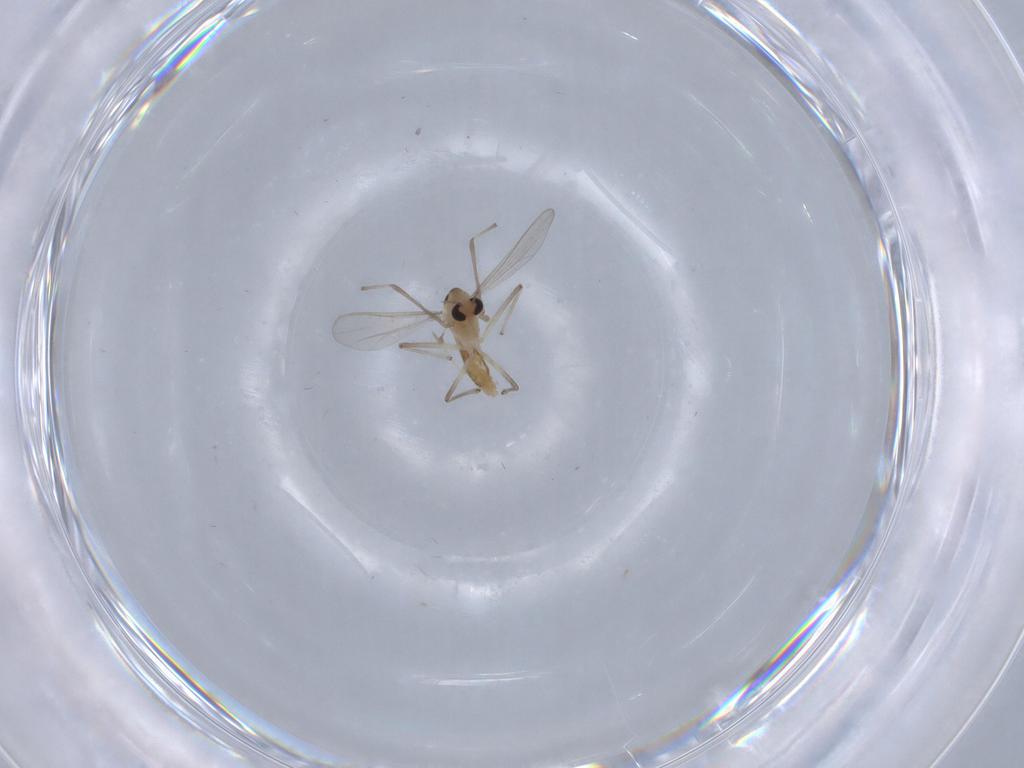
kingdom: Animalia
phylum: Arthropoda
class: Insecta
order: Diptera
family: Chironomidae
